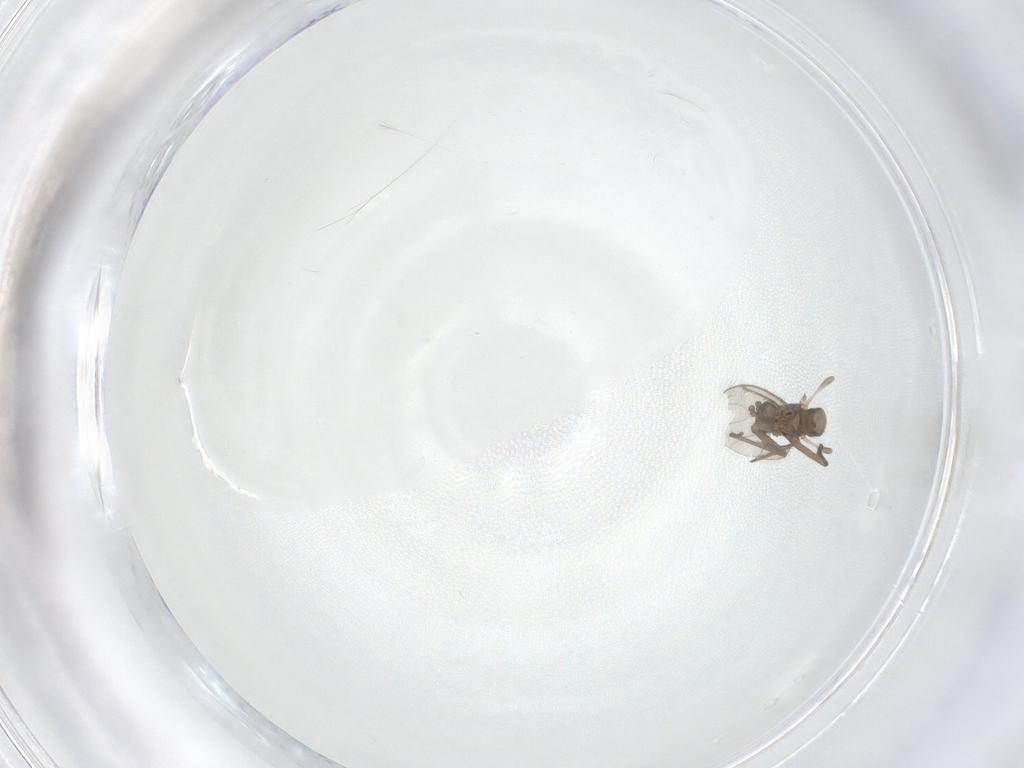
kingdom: Animalia
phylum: Arthropoda
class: Insecta
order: Diptera
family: Sciaridae
